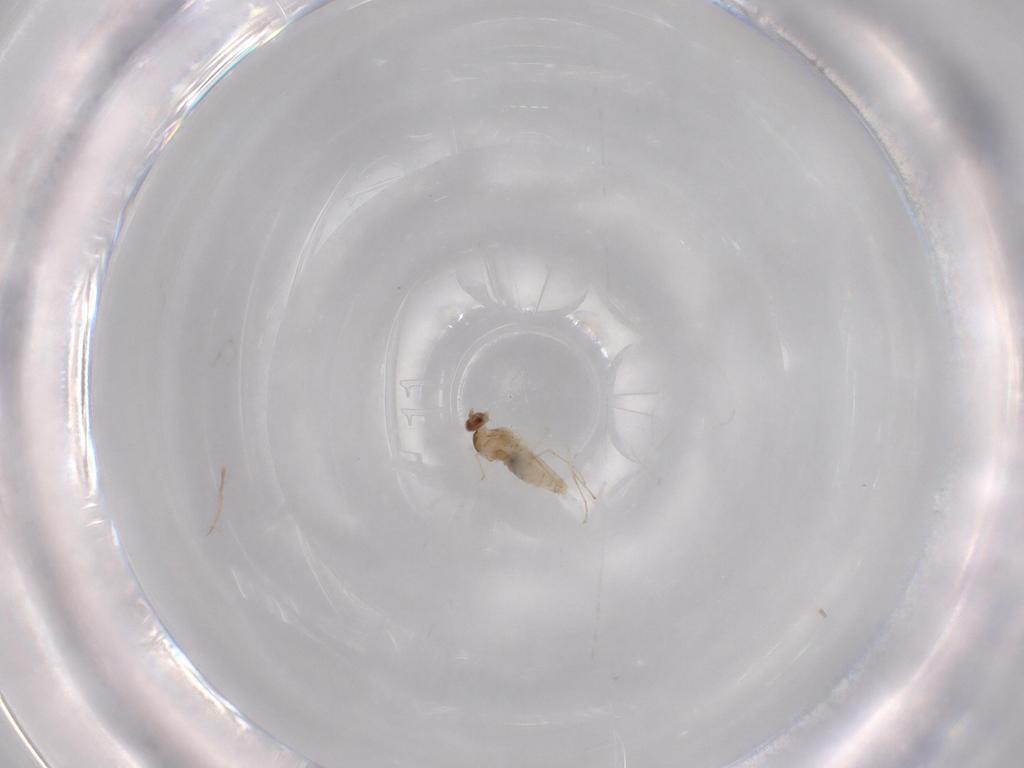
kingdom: Animalia
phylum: Arthropoda
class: Insecta
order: Diptera
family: Cecidomyiidae
